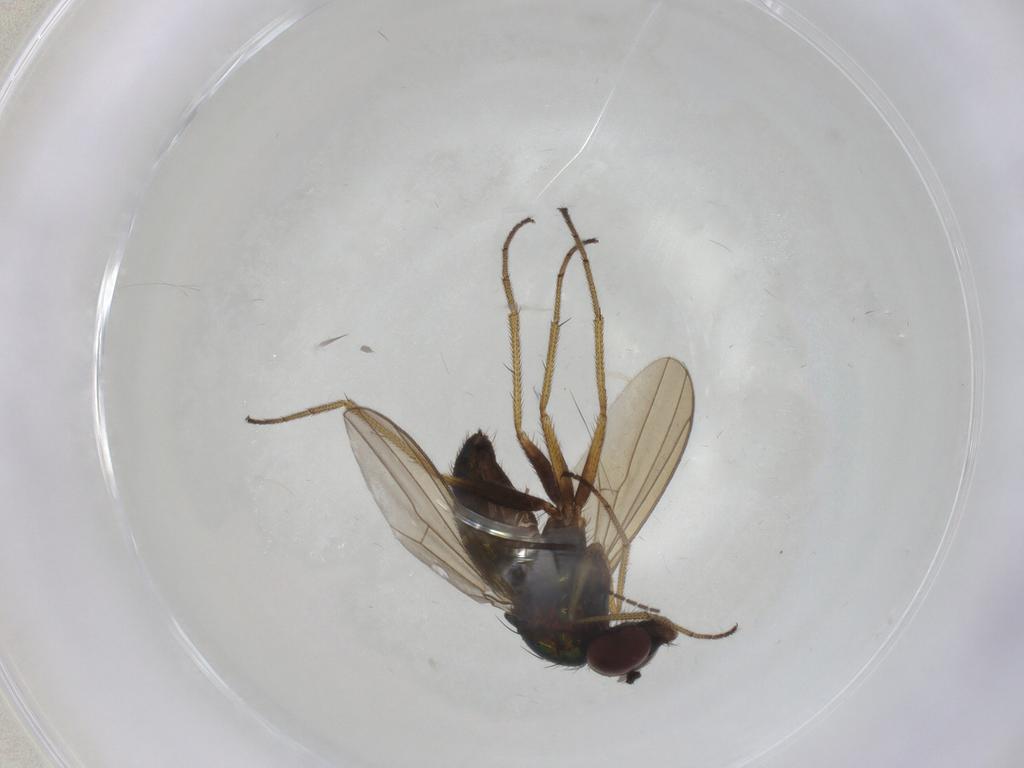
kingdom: Animalia
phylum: Arthropoda
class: Insecta
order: Diptera
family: Dolichopodidae
